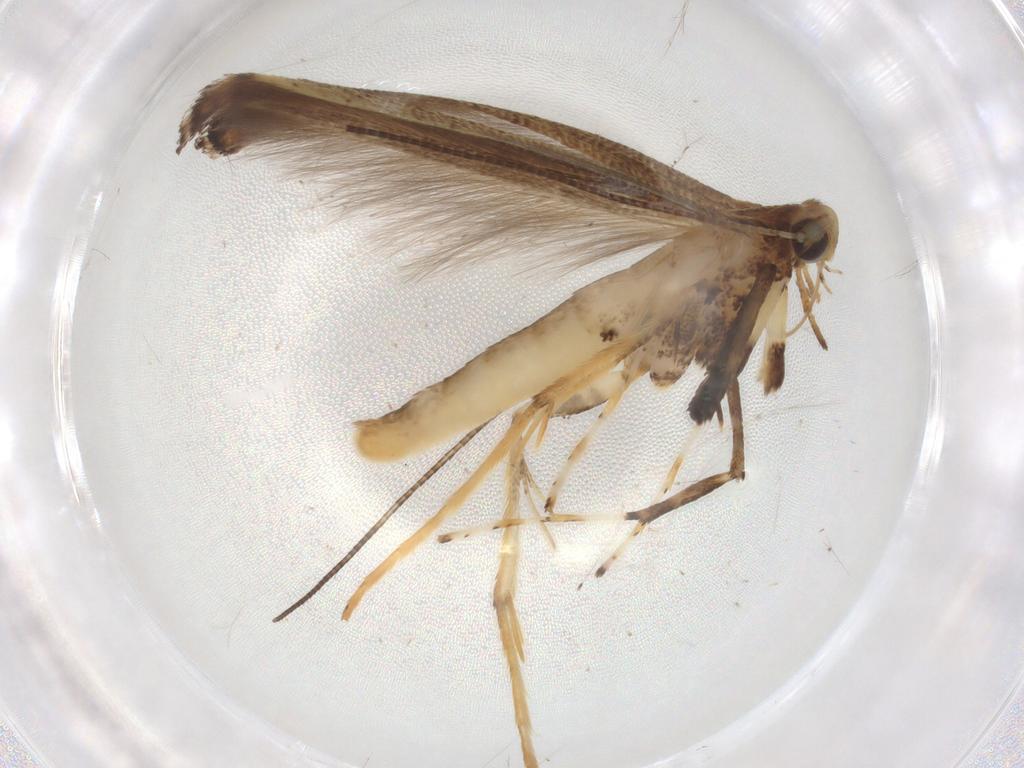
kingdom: Animalia
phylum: Arthropoda
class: Insecta
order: Lepidoptera
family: Gracillariidae
